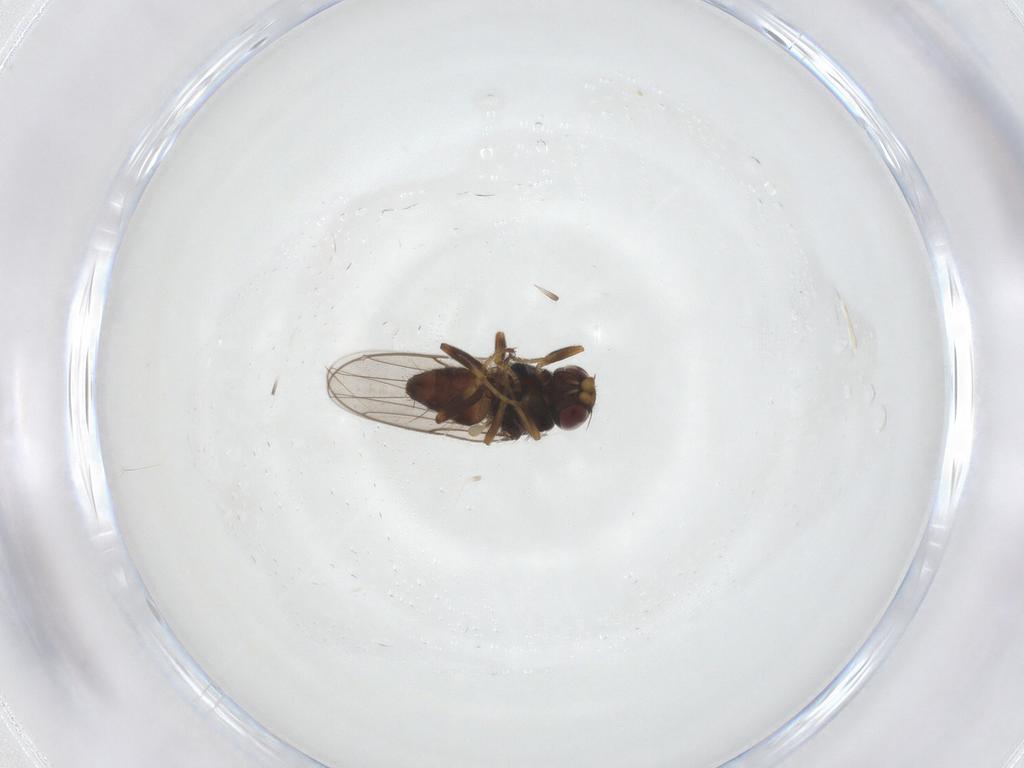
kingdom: Animalia
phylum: Arthropoda
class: Insecta
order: Diptera
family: Chloropidae
